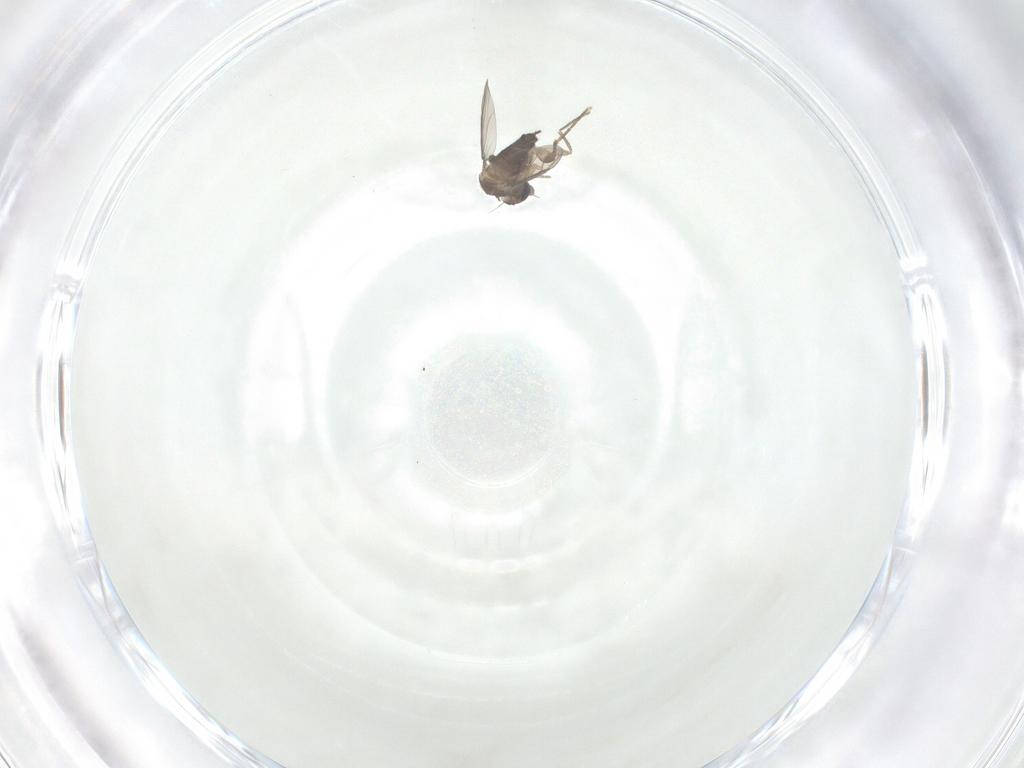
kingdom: Animalia
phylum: Arthropoda
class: Insecta
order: Diptera
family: Phoridae
